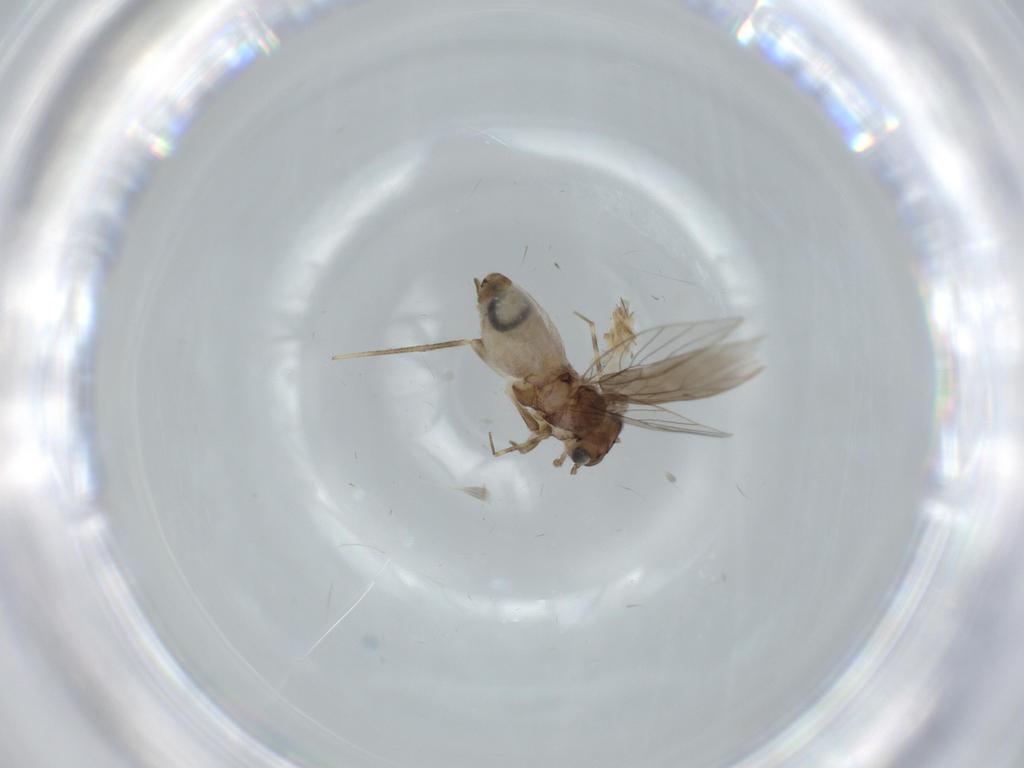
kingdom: Animalia
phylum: Arthropoda
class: Insecta
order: Psocodea
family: Lepidopsocidae
